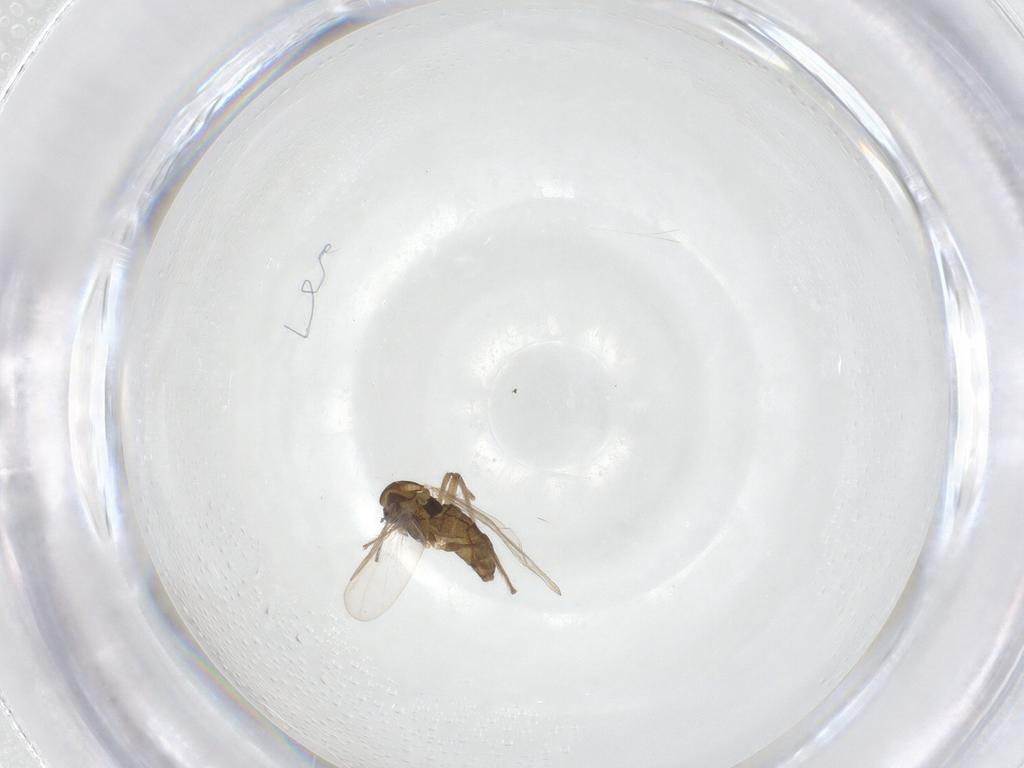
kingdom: Animalia
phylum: Arthropoda
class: Insecta
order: Diptera
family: Chironomidae
